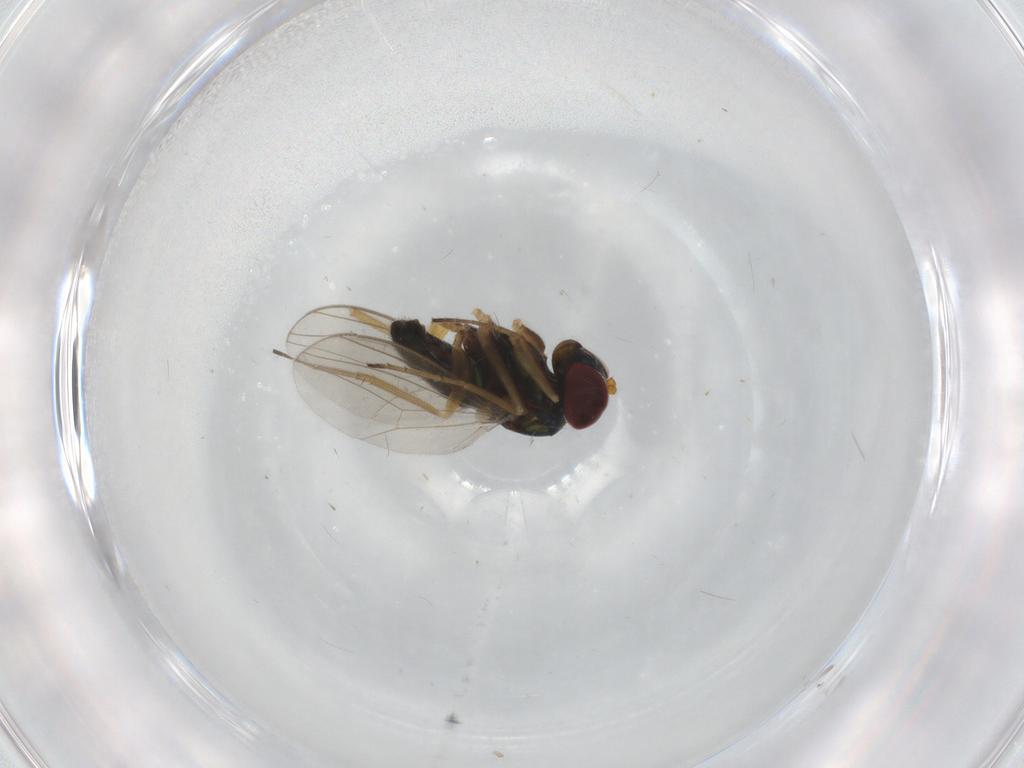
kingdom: Animalia
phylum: Arthropoda
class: Insecta
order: Diptera
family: Dolichopodidae
